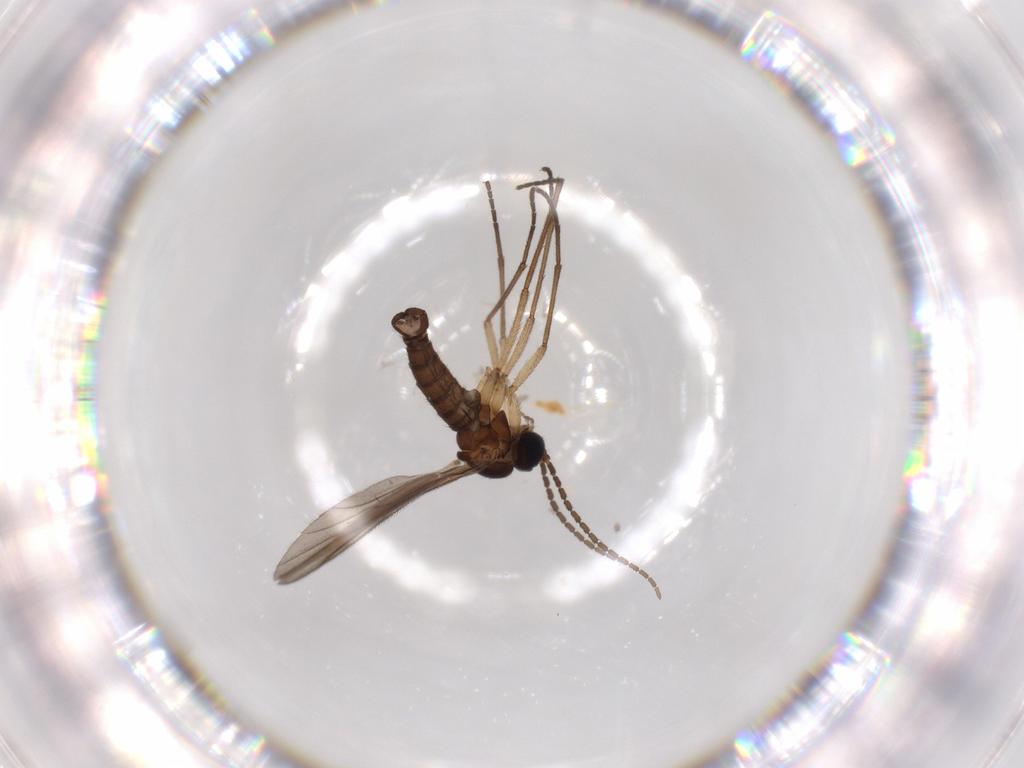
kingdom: Animalia
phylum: Arthropoda
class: Insecta
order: Diptera
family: Sciaridae
